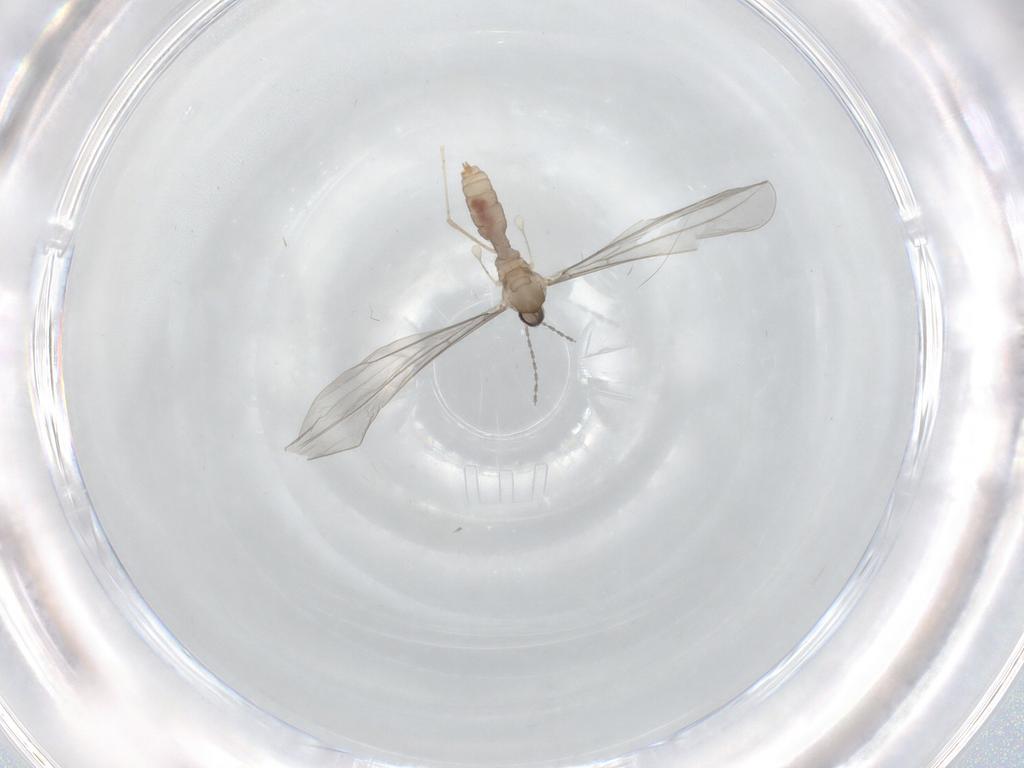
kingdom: Animalia
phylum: Arthropoda
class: Insecta
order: Diptera
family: Cecidomyiidae
